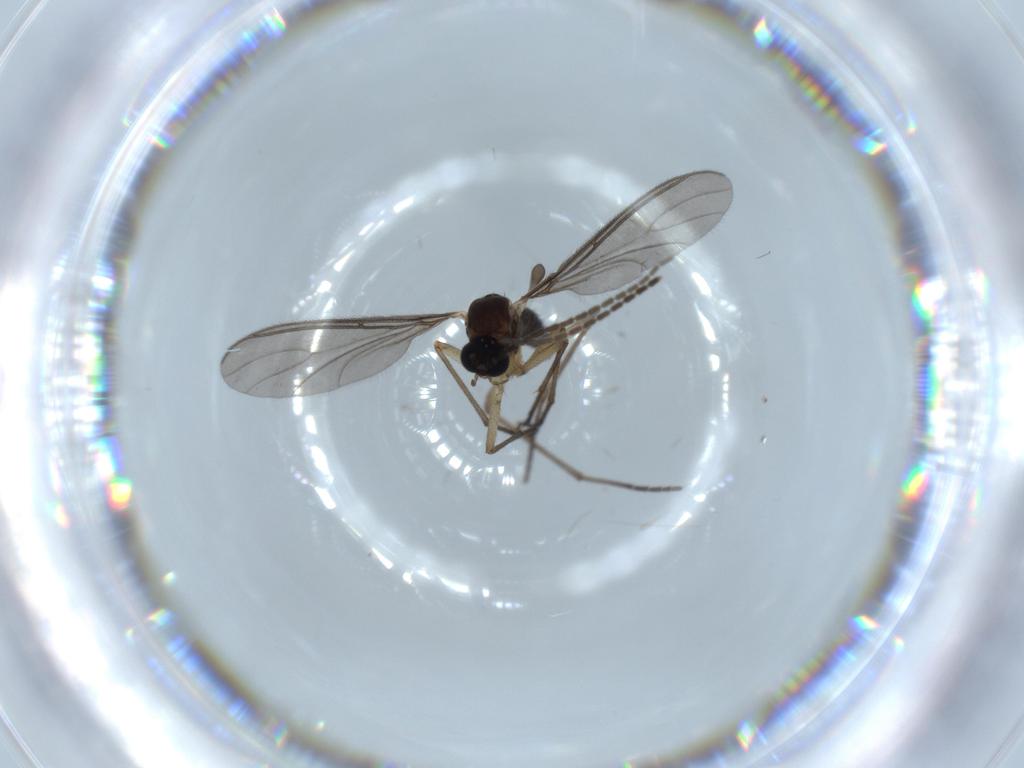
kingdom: Animalia
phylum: Arthropoda
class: Insecta
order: Diptera
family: Sciaridae
